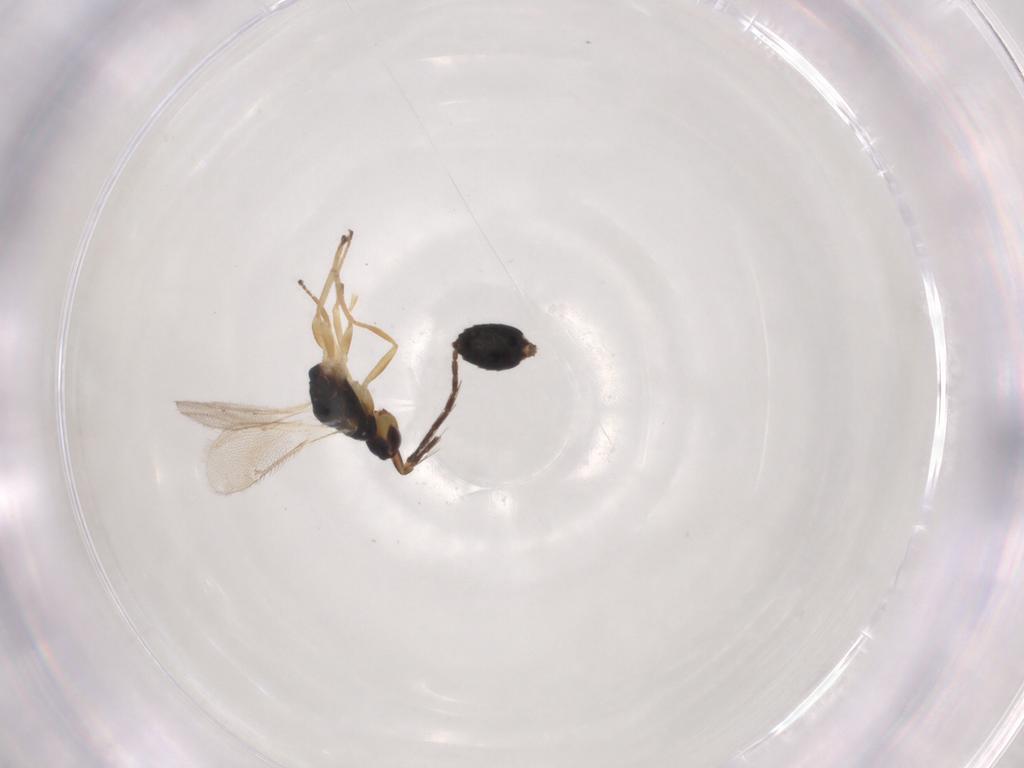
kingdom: Animalia
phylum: Arthropoda
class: Insecta
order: Hymenoptera
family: Eulophidae
